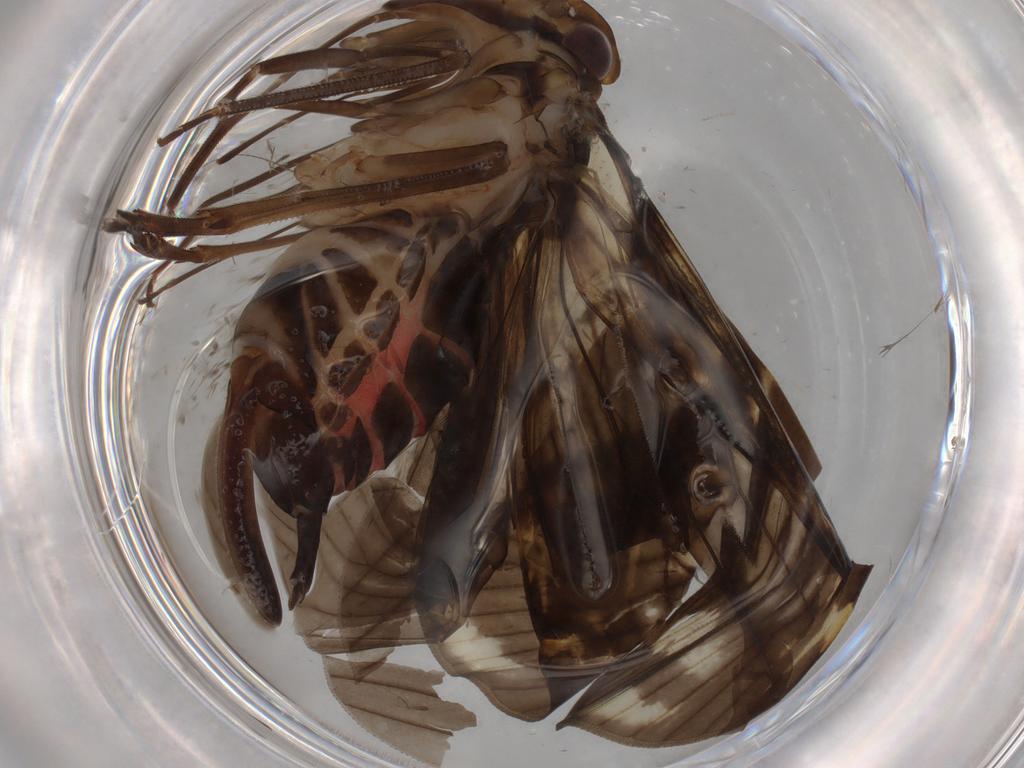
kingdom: Animalia
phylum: Arthropoda
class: Insecta
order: Hemiptera
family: Cixiidae
